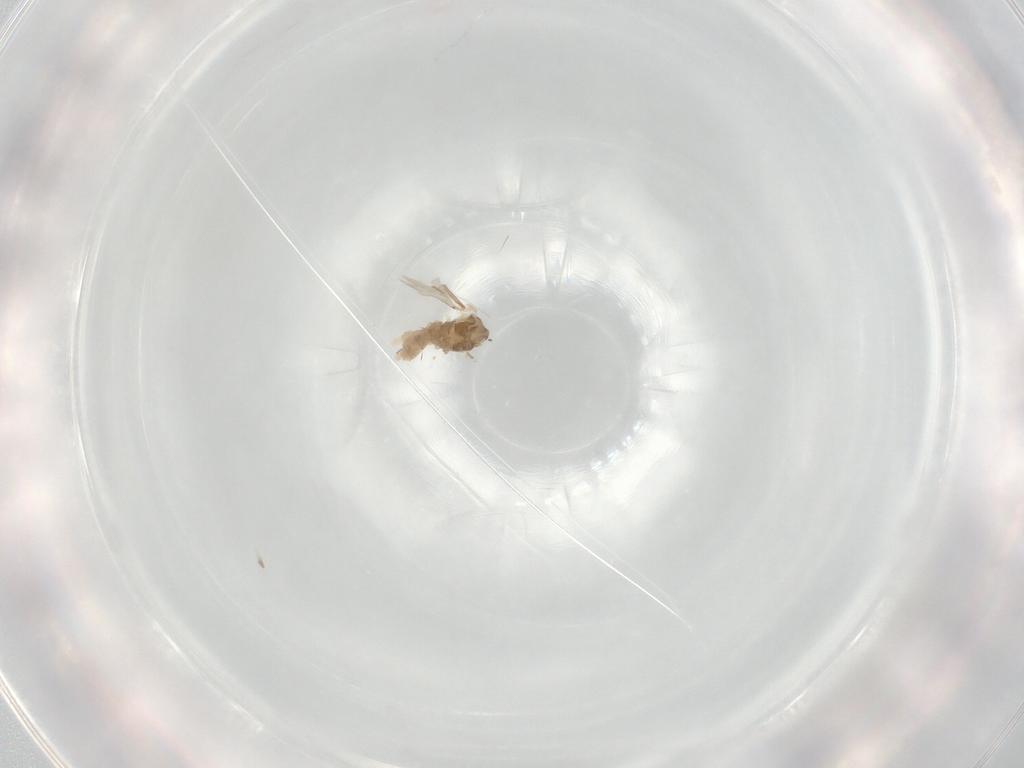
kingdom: Animalia
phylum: Arthropoda
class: Insecta
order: Diptera
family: Cecidomyiidae
